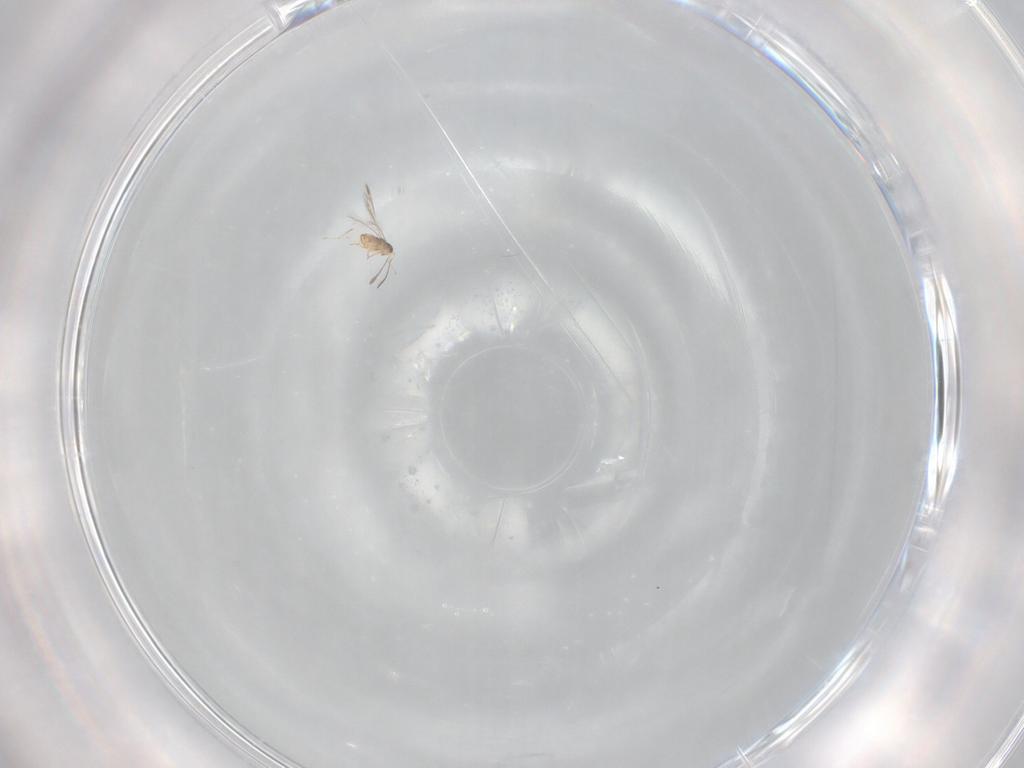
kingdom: Animalia
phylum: Arthropoda
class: Insecta
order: Hymenoptera
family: Mymaridae
